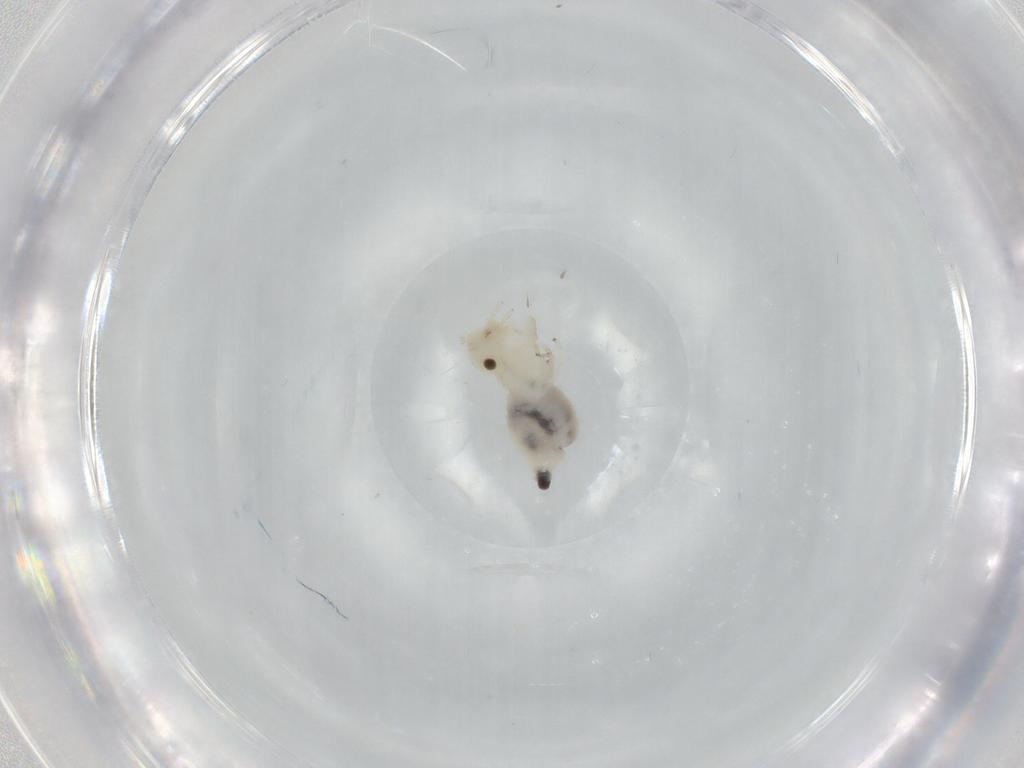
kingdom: Animalia
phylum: Arthropoda
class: Insecta
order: Psocodea
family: Caeciliusidae
